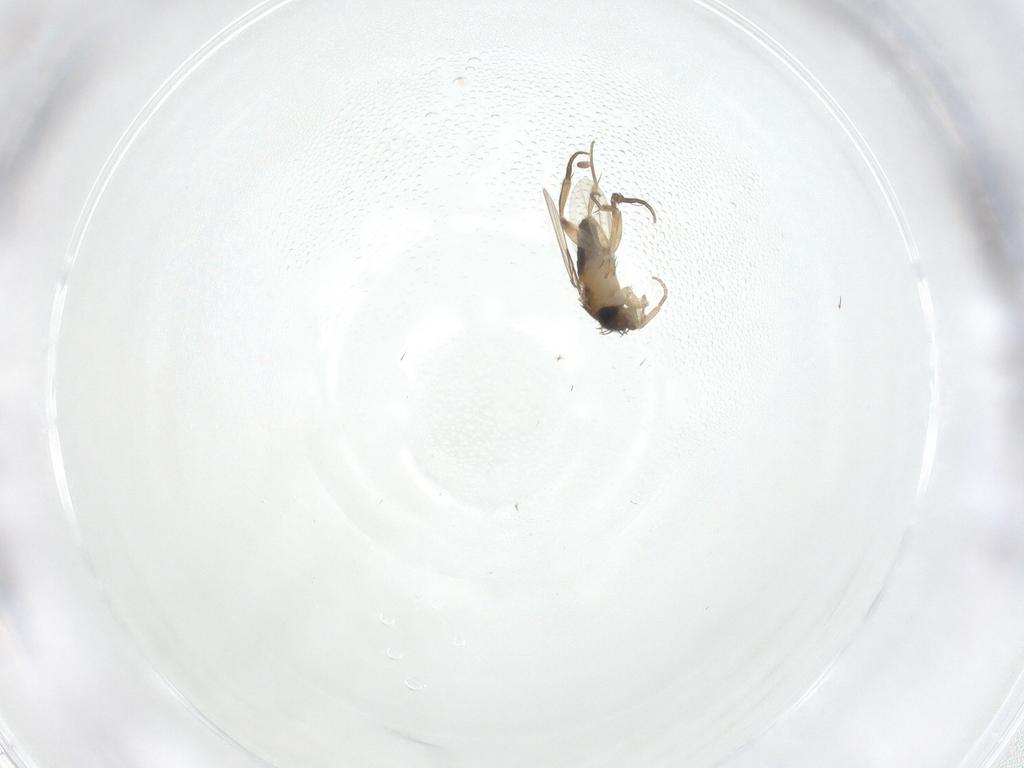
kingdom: Animalia
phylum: Arthropoda
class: Insecta
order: Diptera
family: Phoridae
